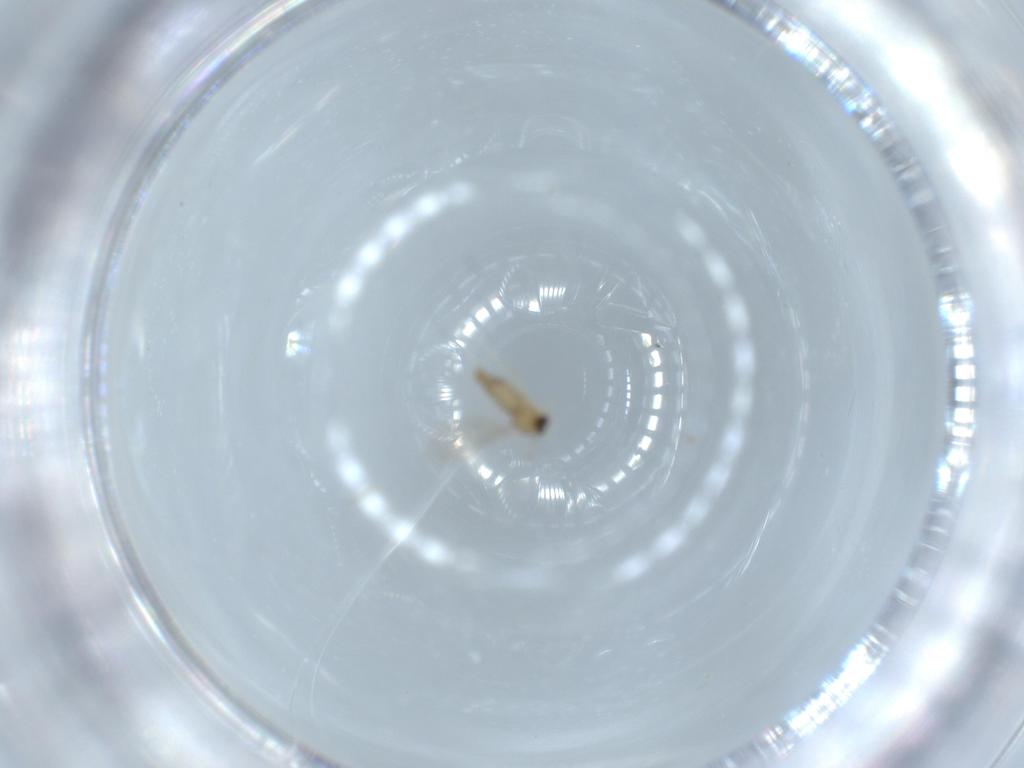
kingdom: Animalia
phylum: Arthropoda
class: Insecta
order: Diptera
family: Cecidomyiidae
